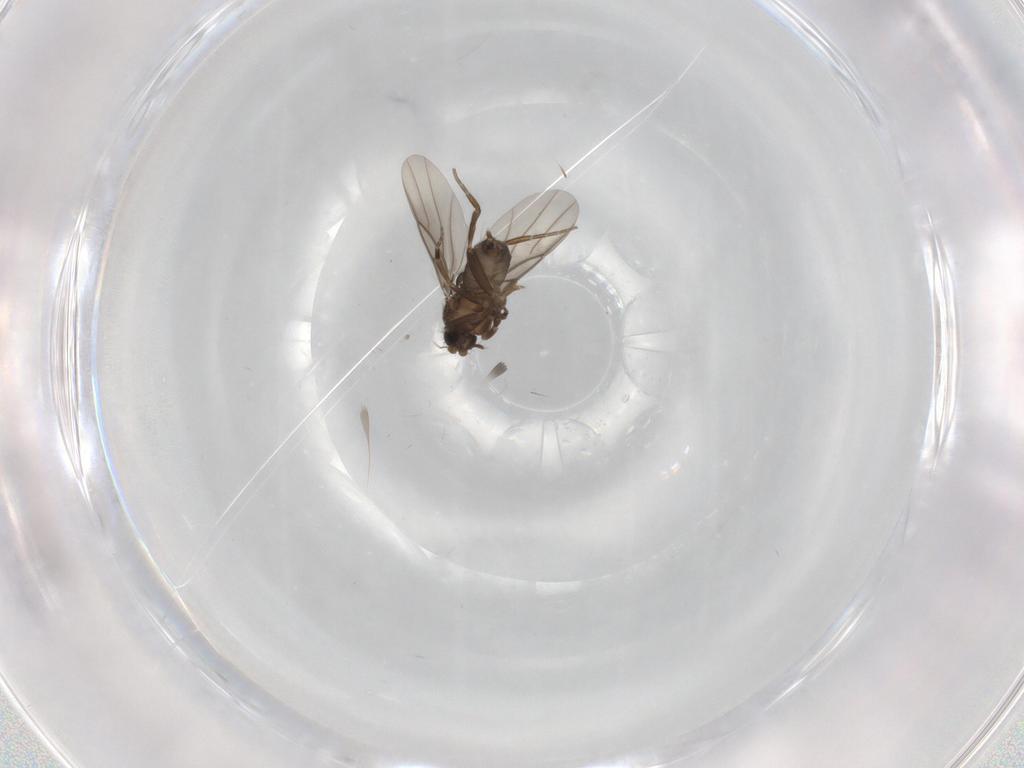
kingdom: Animalia
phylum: Arthropoda
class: Insecta
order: Diptera
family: Phoridae
